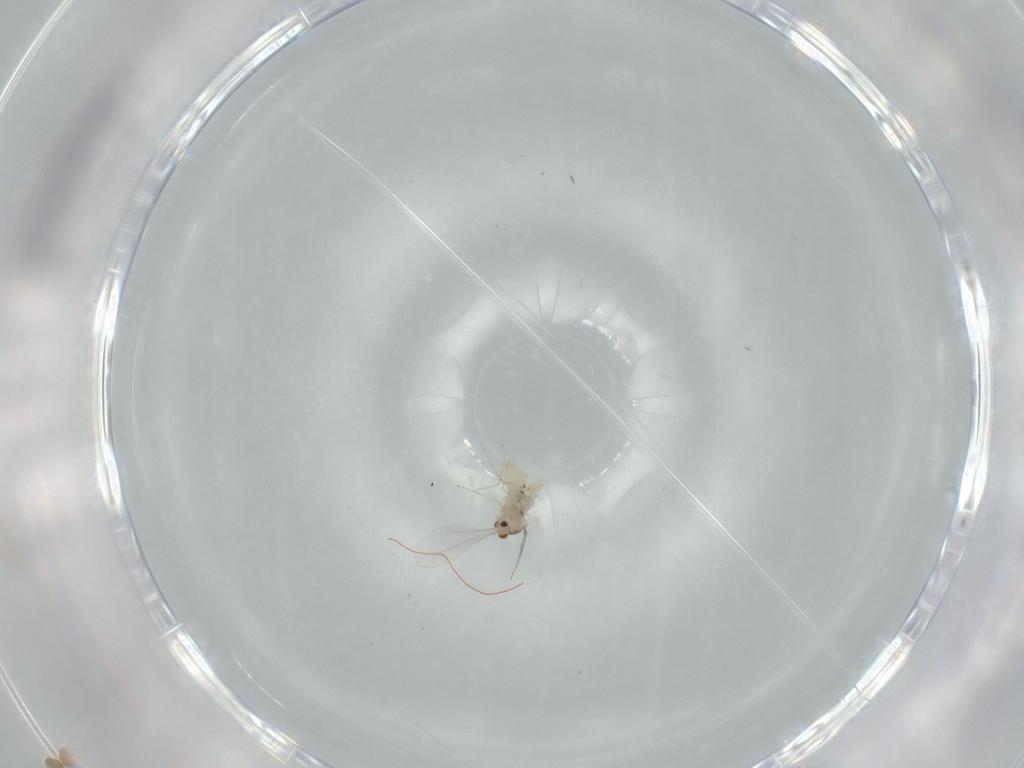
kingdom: Animalia
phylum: Arthropoda
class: Insecta
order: Diptera
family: Cecidomyiidae
